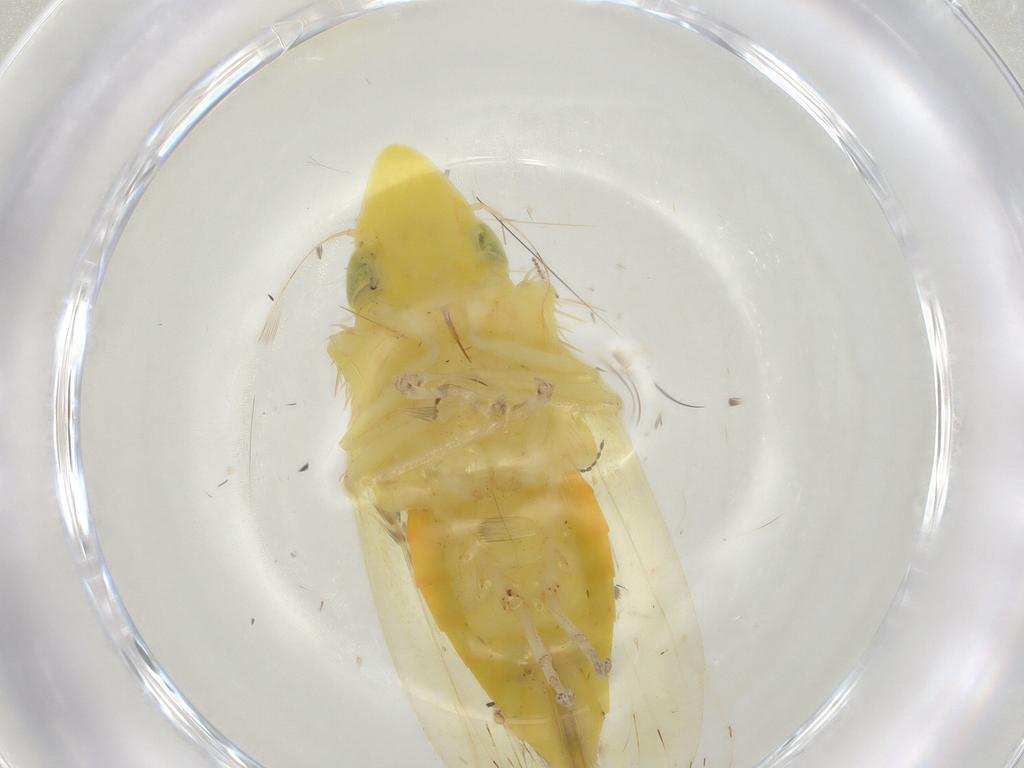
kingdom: Animalia
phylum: Arthropoda
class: Insecta
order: Hemiptera
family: Cicadellidae
